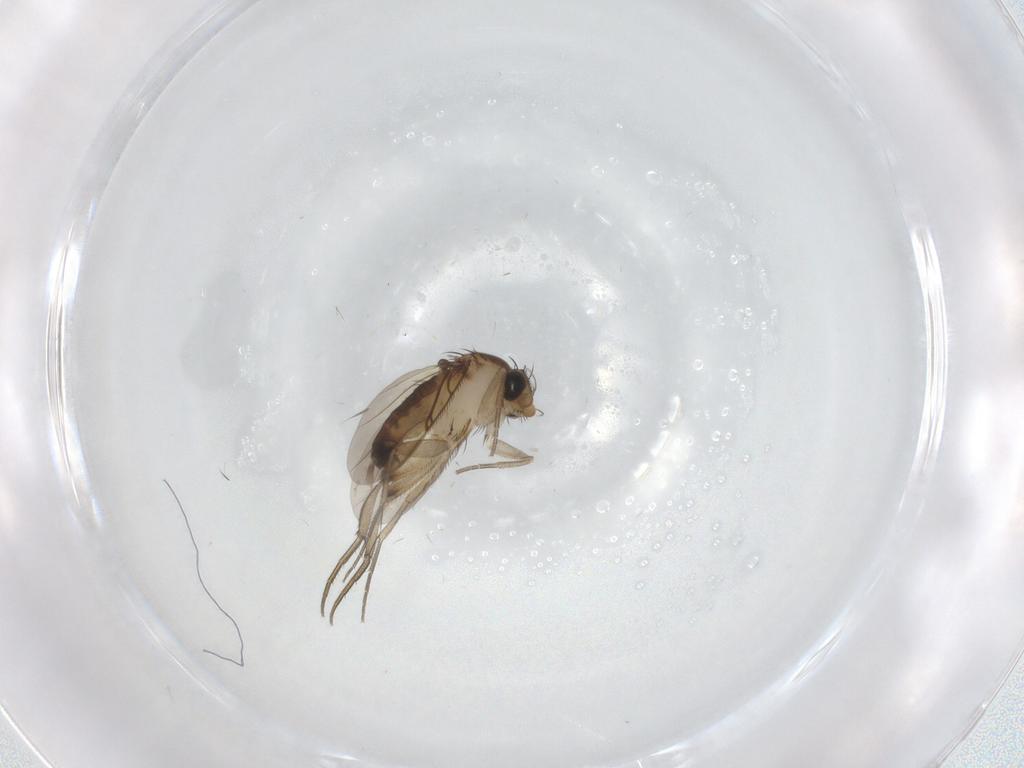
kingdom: Animalia
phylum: Arthropoda
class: Insecta
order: Diptera
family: Phoridae
